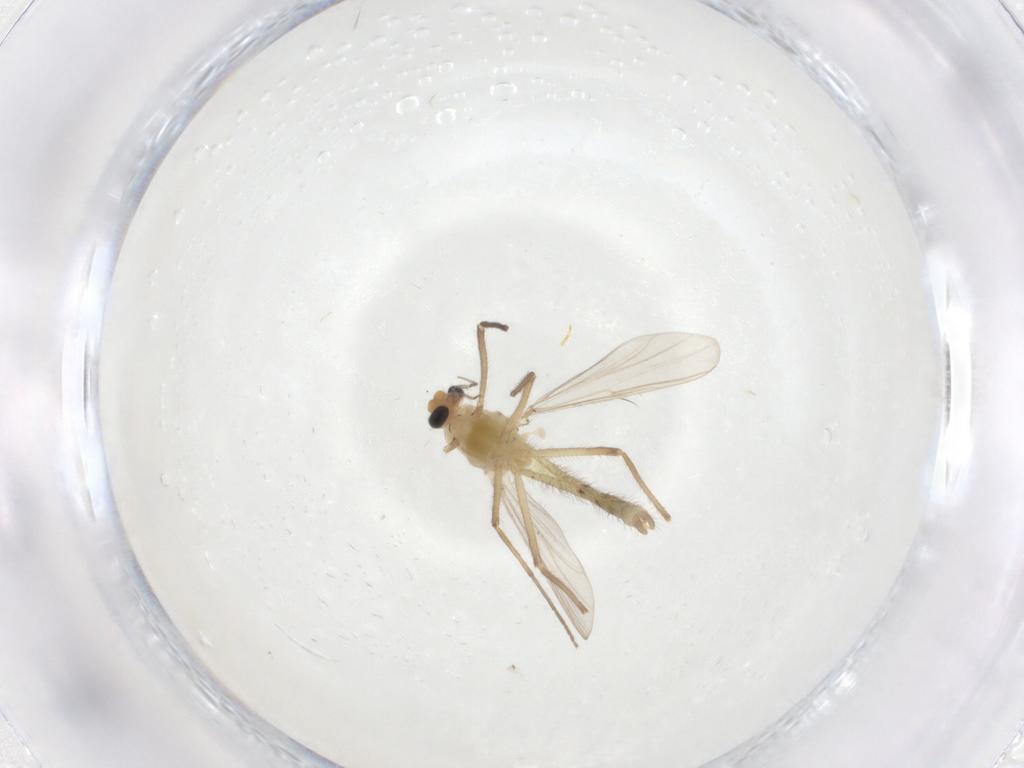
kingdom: Animalia
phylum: Arthropoda
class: Insecta
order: Diptera
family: Chironomidae
